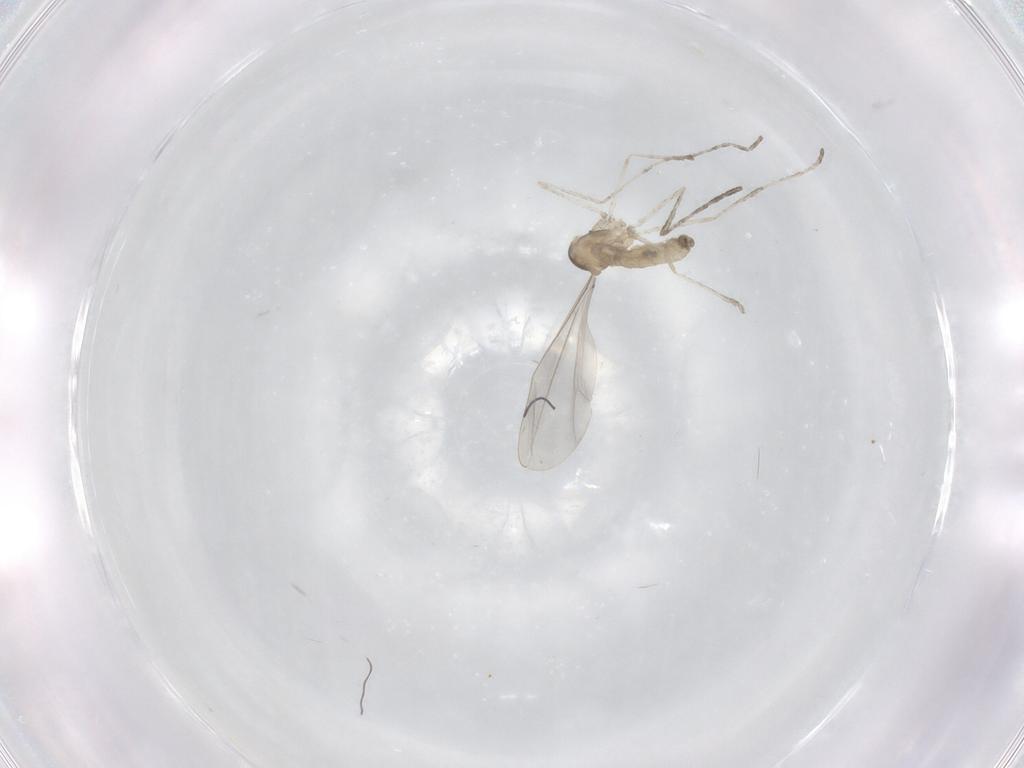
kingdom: Animalia
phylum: Arthropoda
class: Insecta
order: Diptera
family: Cecidomyiidae
